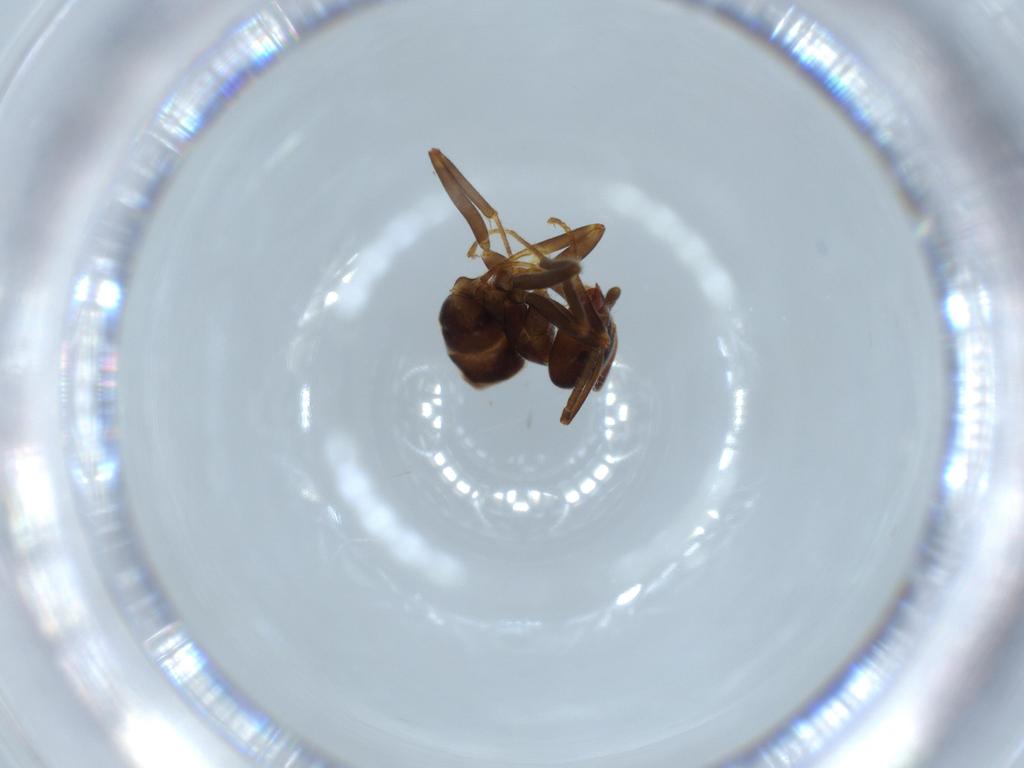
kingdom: Animalia
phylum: Arthropoda
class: Insecta
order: Hymenoptera
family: Formicidae
